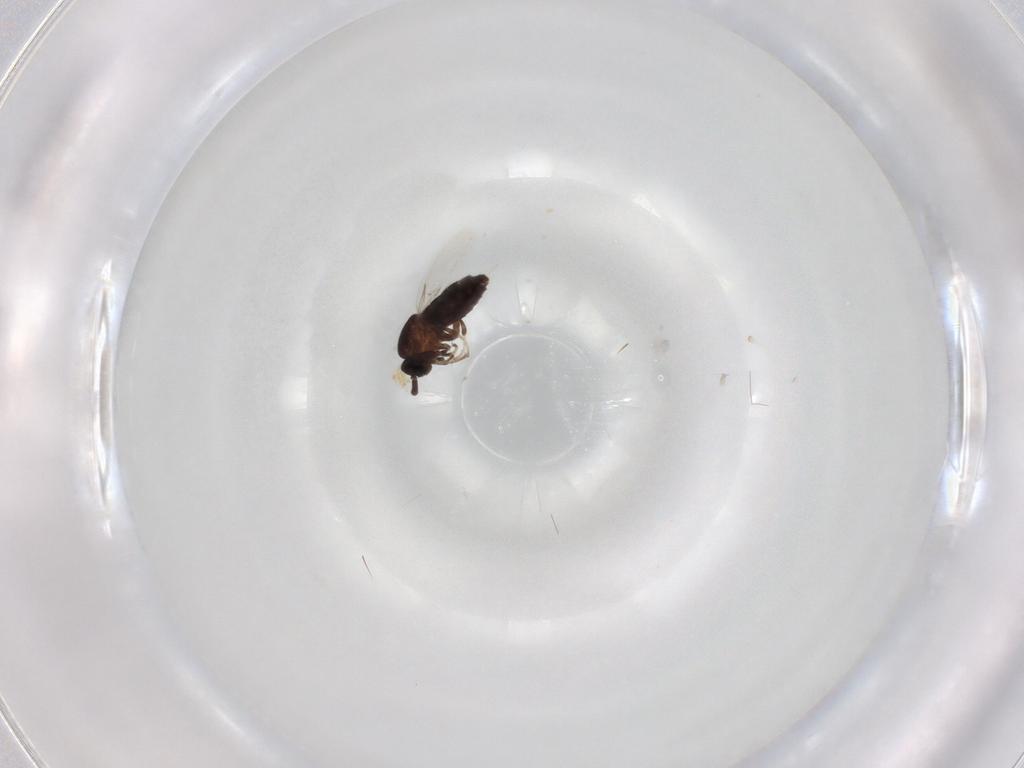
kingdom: Animalia
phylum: Arthropoda
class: Insecta
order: Diptera
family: Scatopsidae
